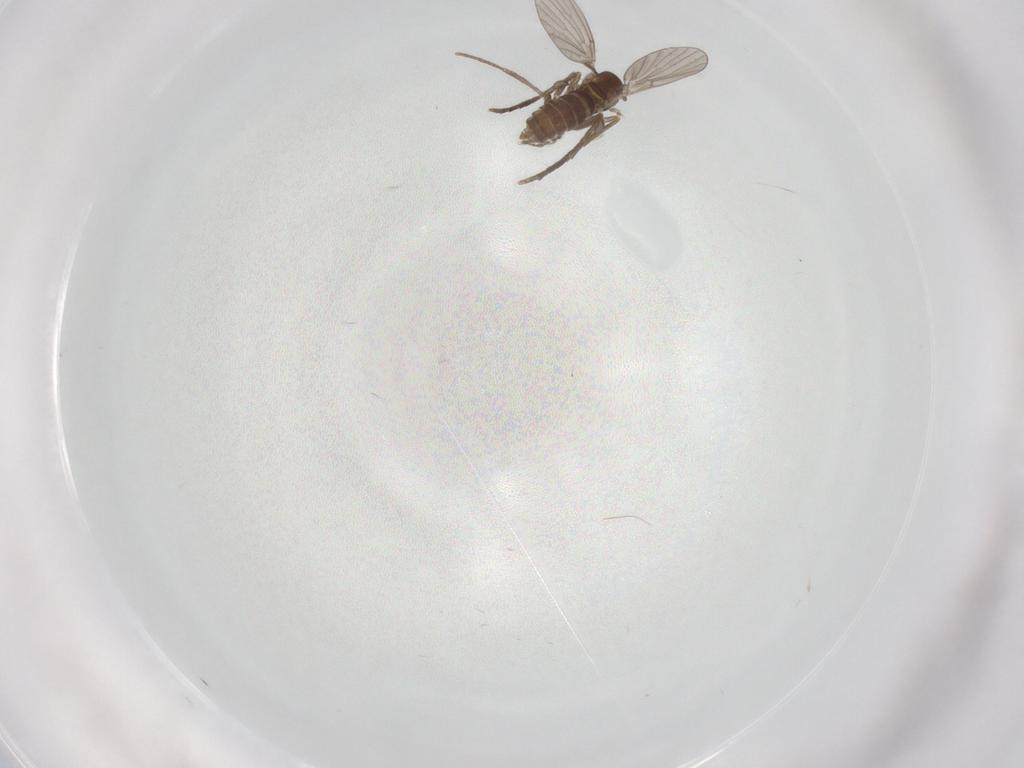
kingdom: Animalia
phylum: Arthropoda
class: Insecta
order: Diptera
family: Psychodidae
